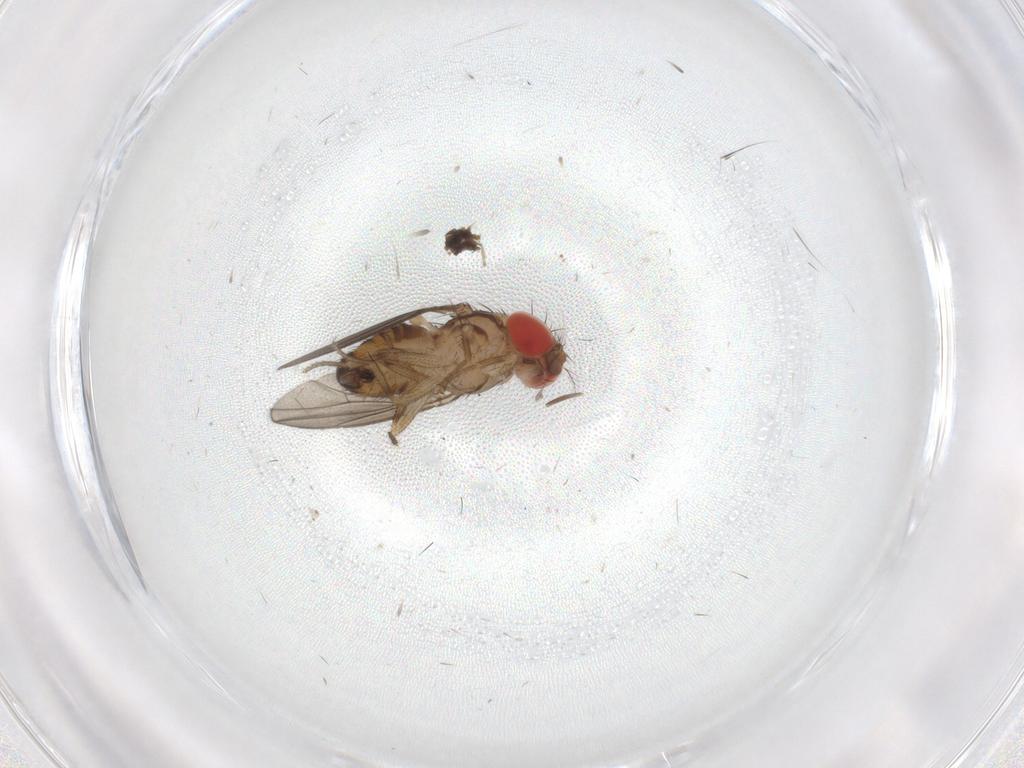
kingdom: Animalia
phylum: Arthropoda
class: Insecta
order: Diptera
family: Drosophilidae
